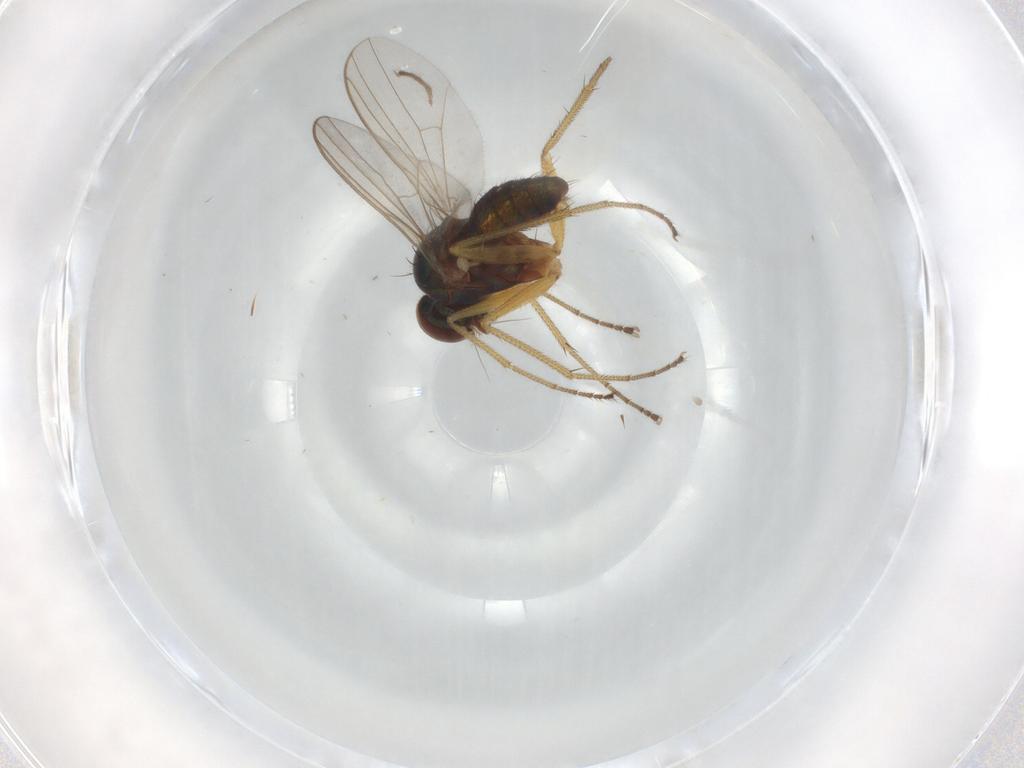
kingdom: Animalia
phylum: Arthropoda
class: Insecta
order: Diptera
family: Dolichopodidae
